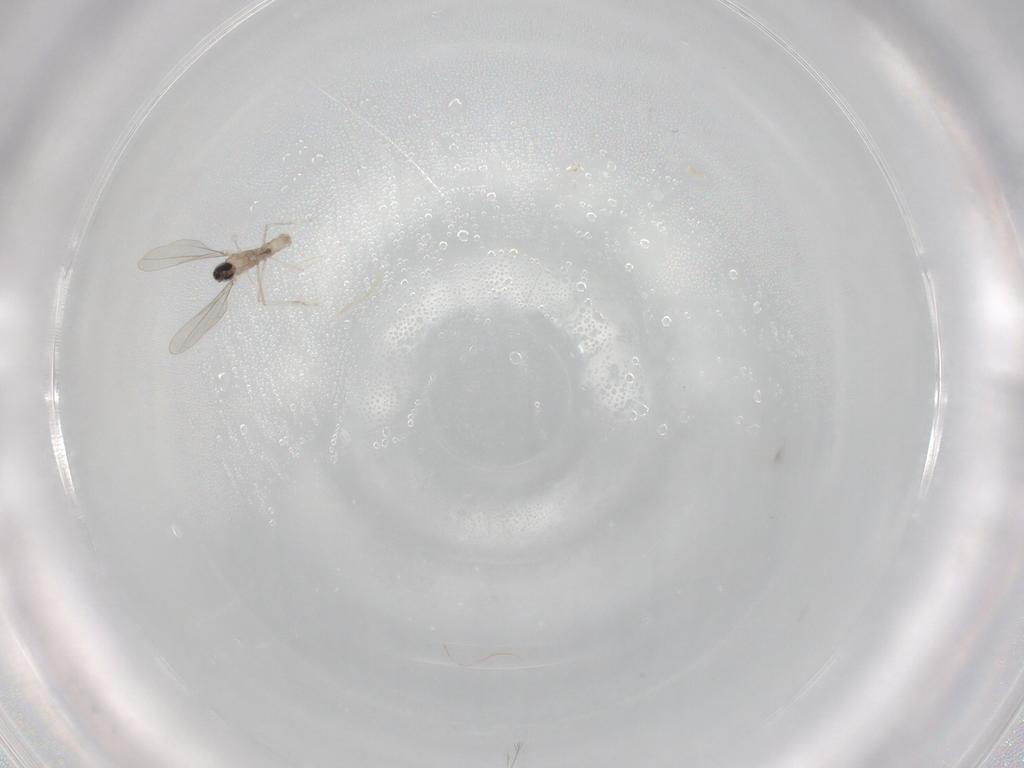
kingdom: Animalia
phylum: Arthropoda
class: Insecta
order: Diptera
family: Cecidomyiidae
